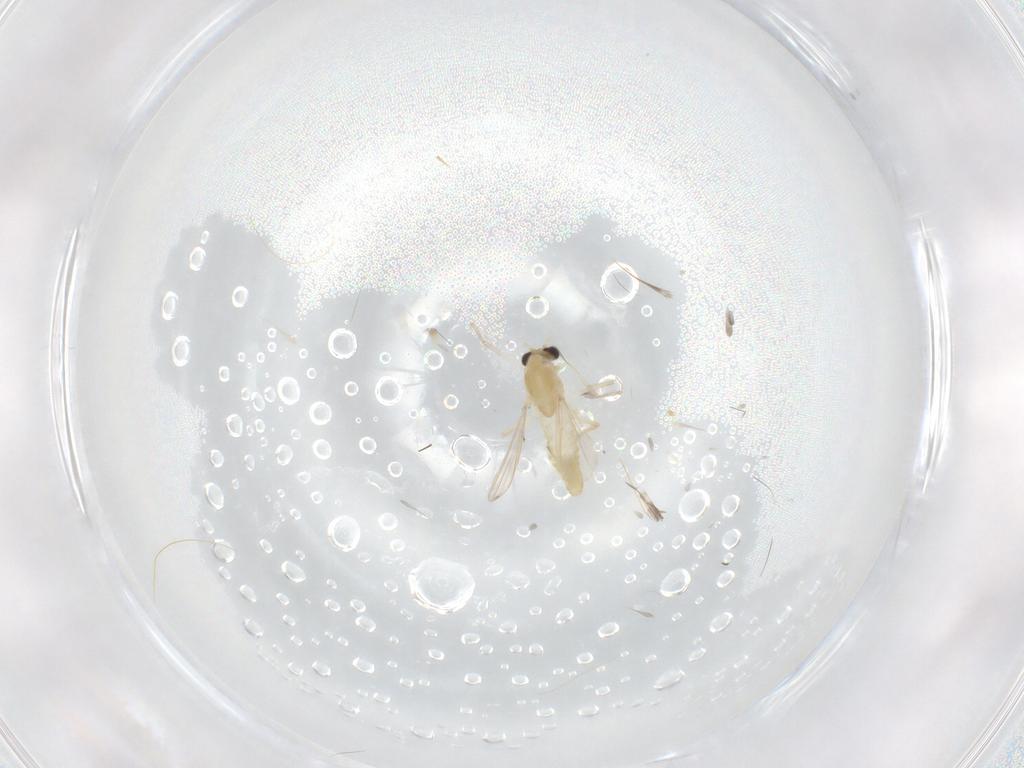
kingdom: Animalia
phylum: Arthropoda
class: Insecta
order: Diptera
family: Chironomidae
